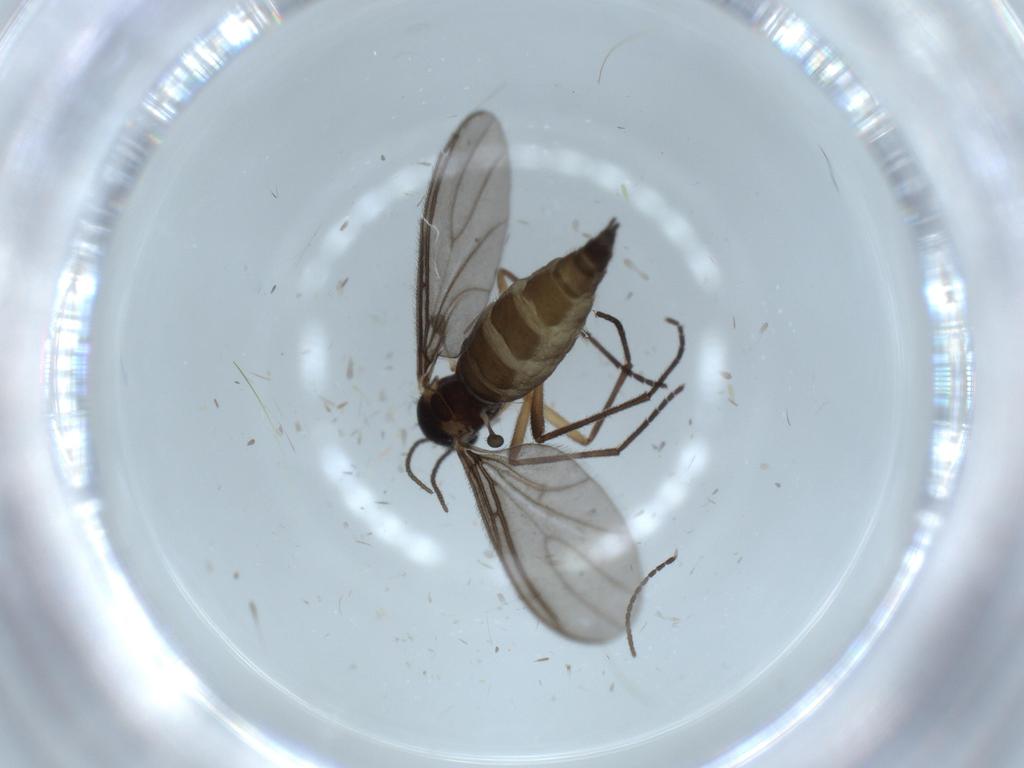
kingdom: Animalia
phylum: Arthropoda
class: Insecta
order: Diptera
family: Sciaridae
